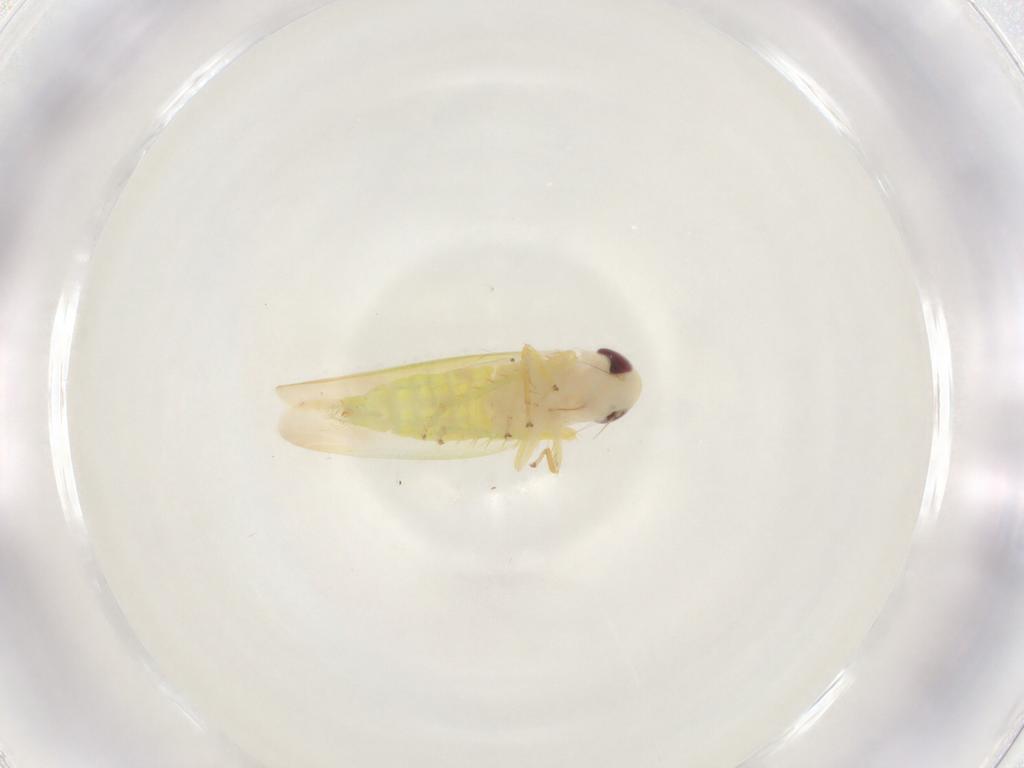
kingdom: Animalia
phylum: Arthropoda
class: Insecta
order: Hemiptera
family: Cicadellidae
